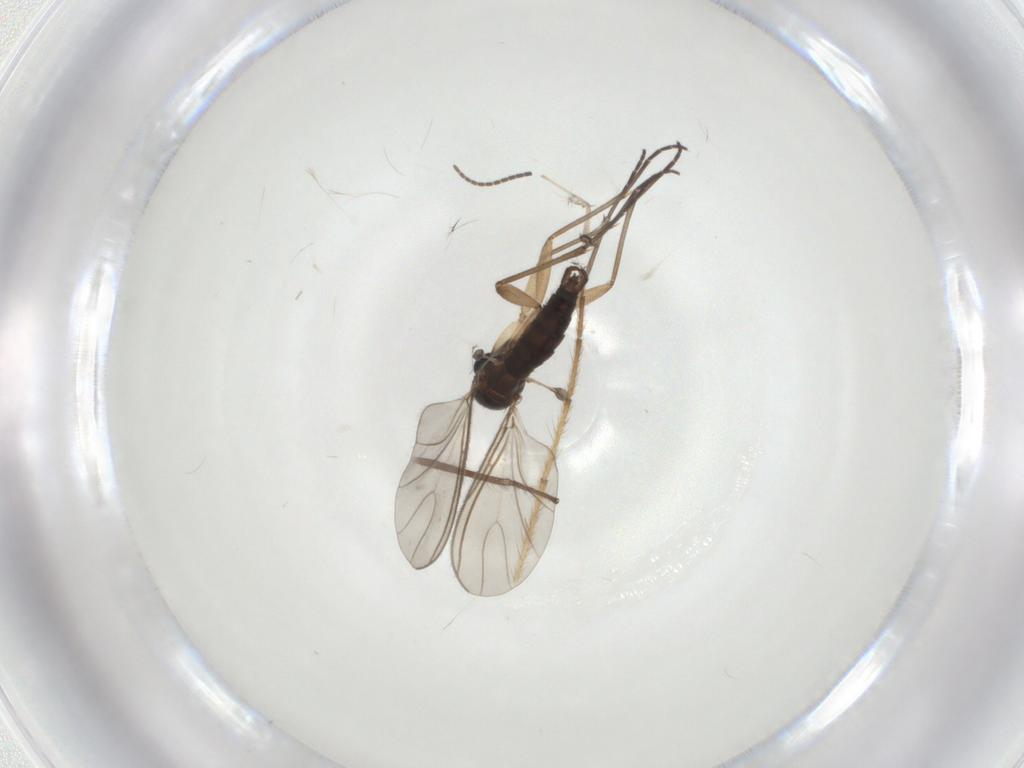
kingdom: Animalia
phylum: Arthropoda
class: Insecta
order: Diptera
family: Sciaridae
